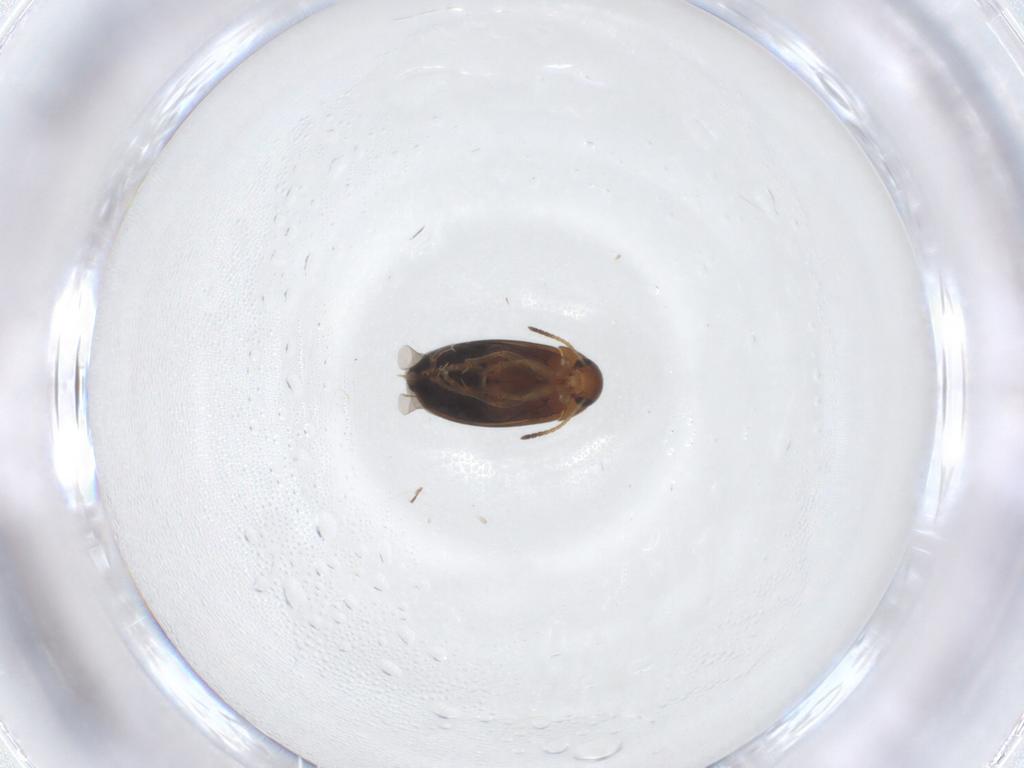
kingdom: Animalia
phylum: Arthropoda
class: Insecta
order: Coleoptera
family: Scraptiidae
